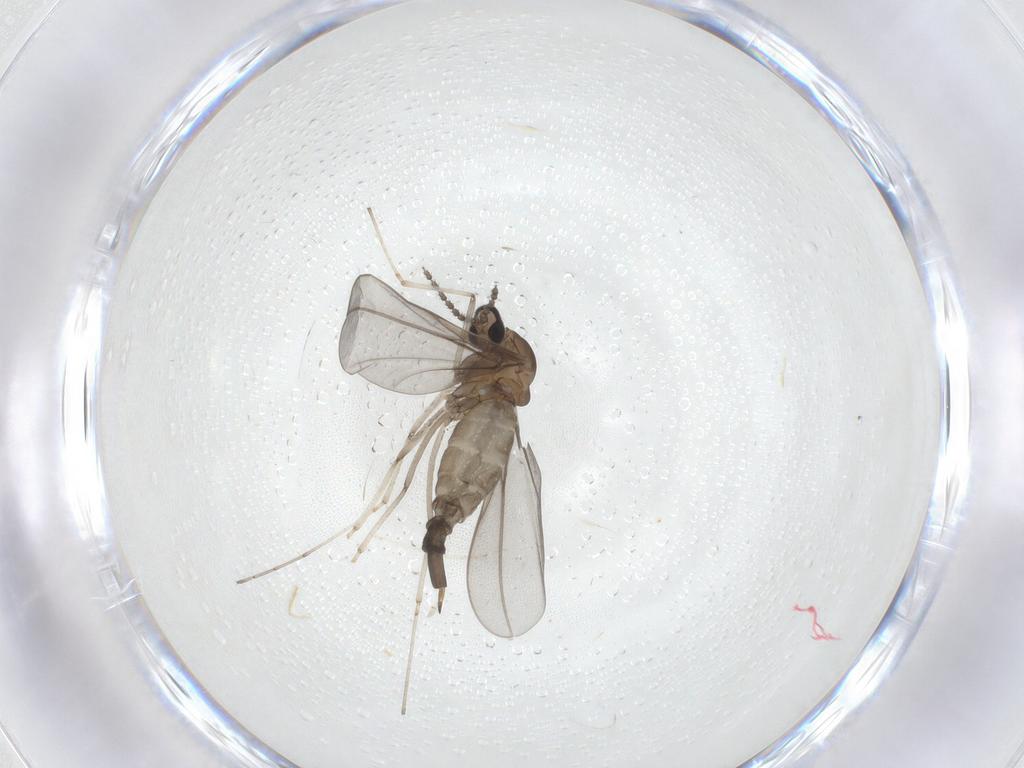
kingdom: Animalia
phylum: Arthropoda
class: Insecta
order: Diptera
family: Cecidomyiidae
